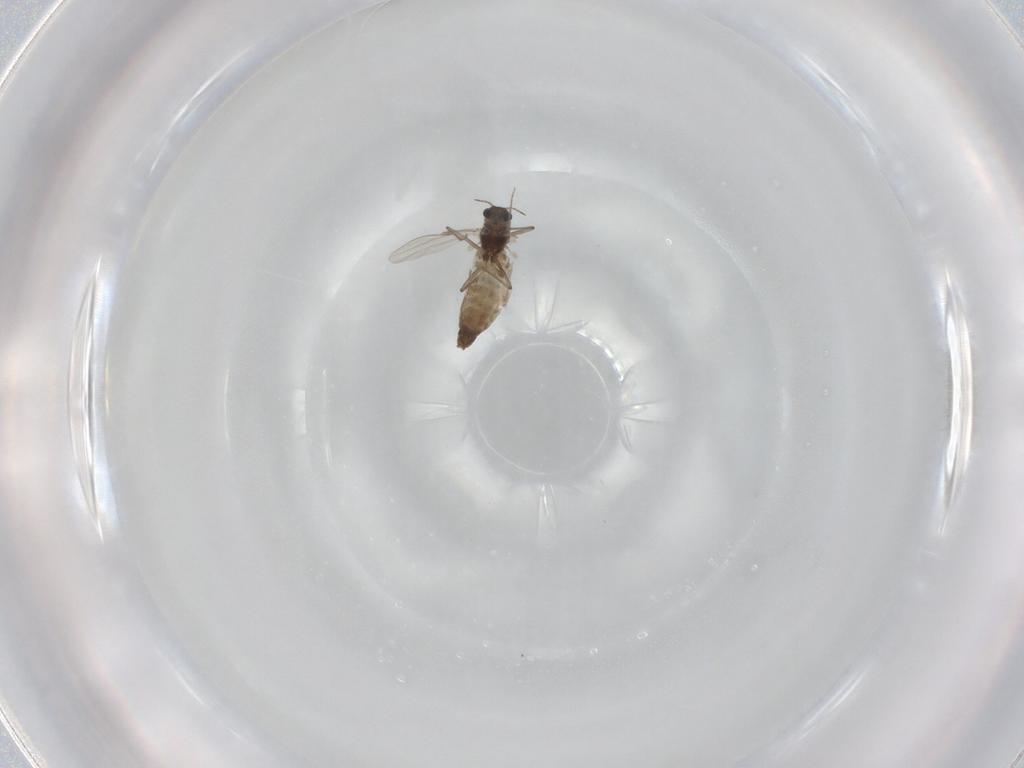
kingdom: Animalia
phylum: Arthropoda
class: Insecta
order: Diptera
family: Chironomidae
